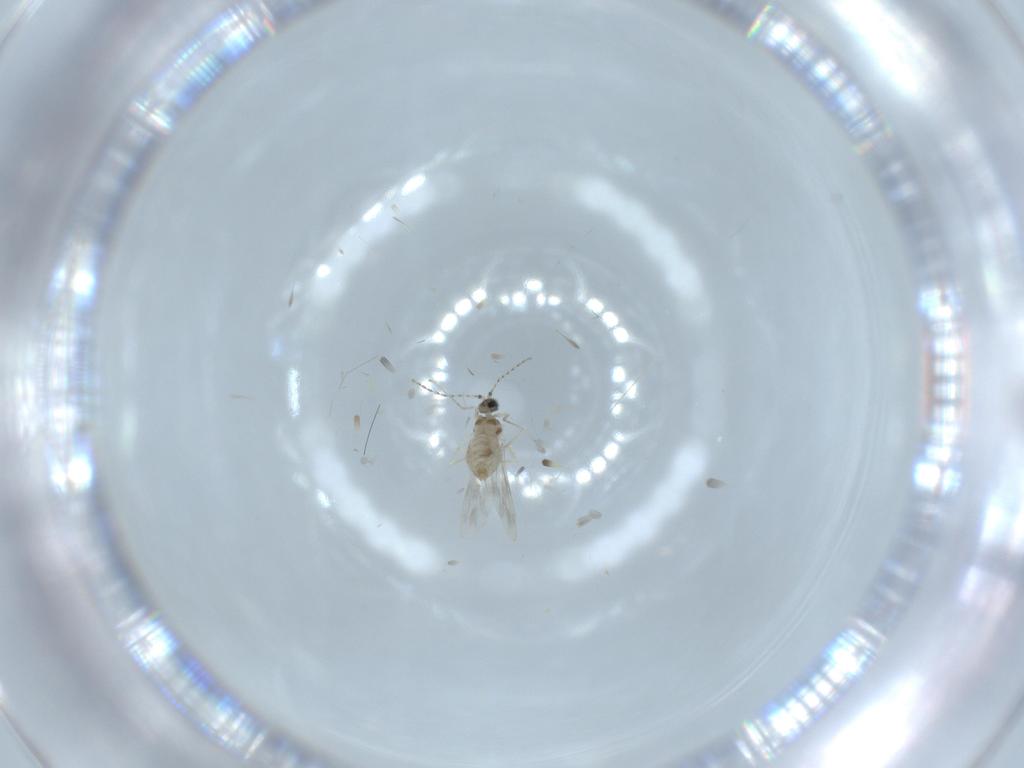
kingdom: Animalia
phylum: Arthropoda
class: Insecta
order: Diptera
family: Cecidomyiidae
